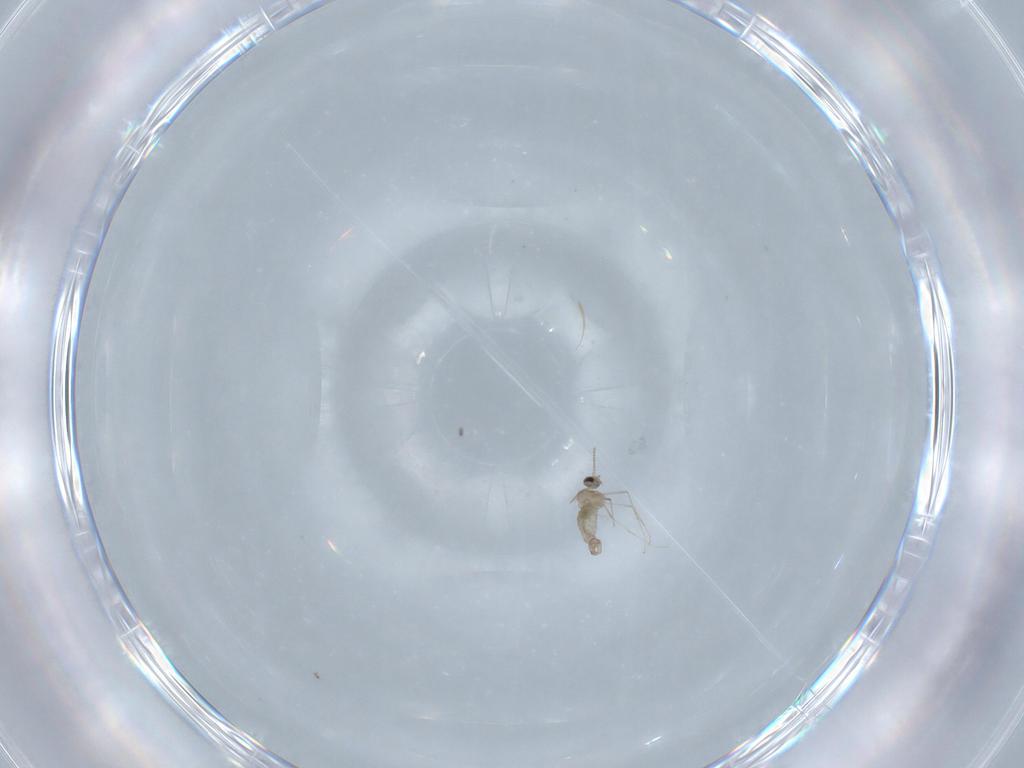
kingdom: Animalia
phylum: Arthropoda
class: Insecta
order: Diptera
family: Cecidomyiidae
